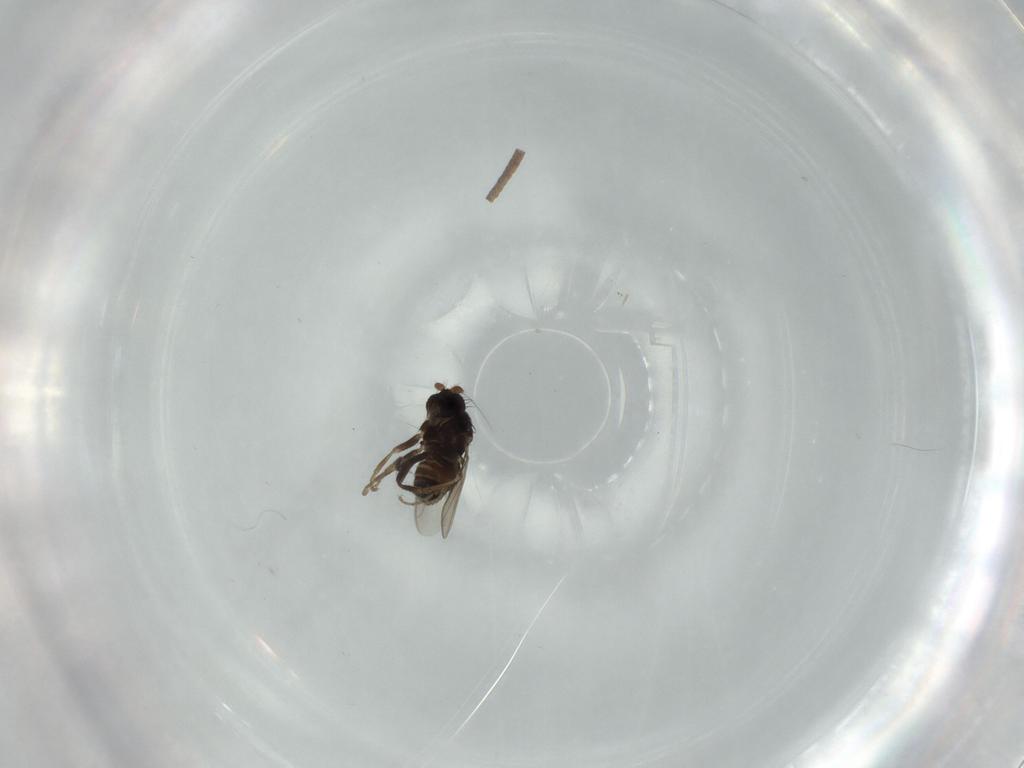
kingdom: Animalia
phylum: Arthropoda
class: Insecta
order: Diptera
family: Sphaeroceridae
